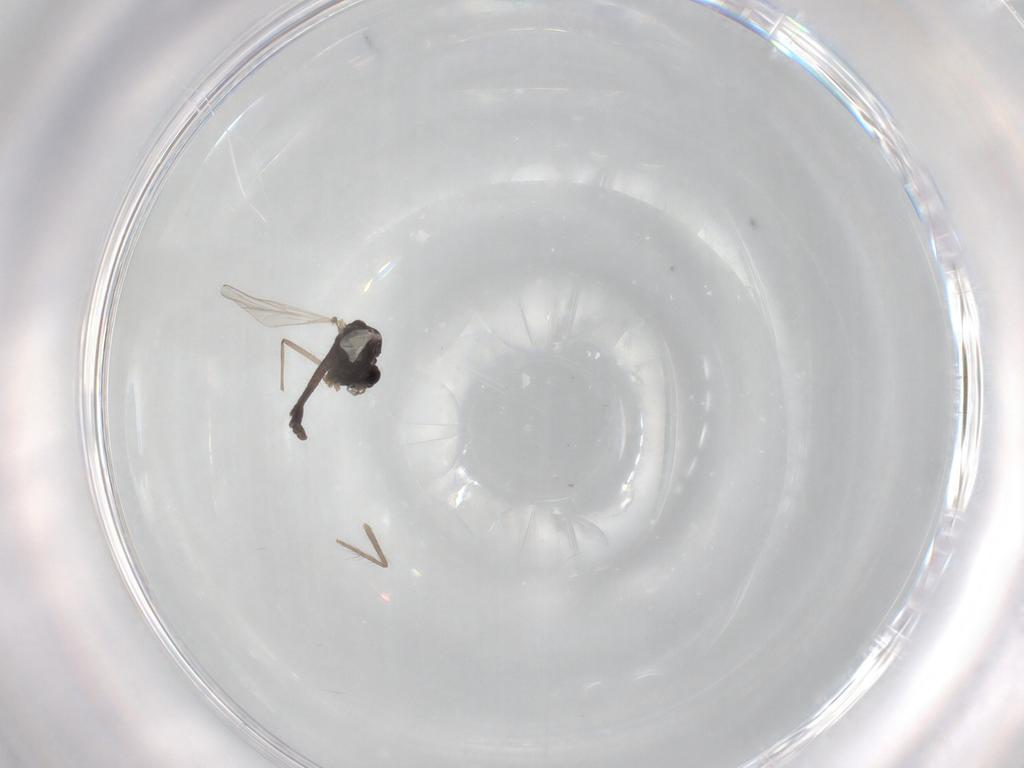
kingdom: Animalia
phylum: Arthropoda
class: Insecta
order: Diptera
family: Chironomidae
